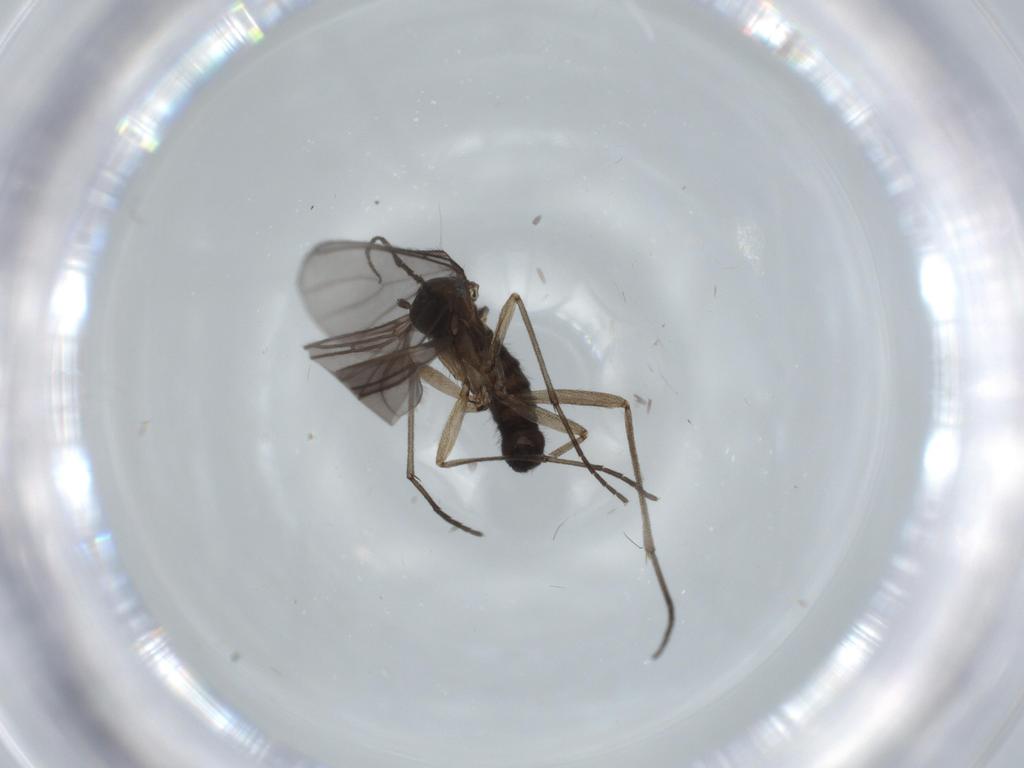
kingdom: Animalia
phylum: Arthropoda
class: Insecta
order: Diptera
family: Sciaridae
